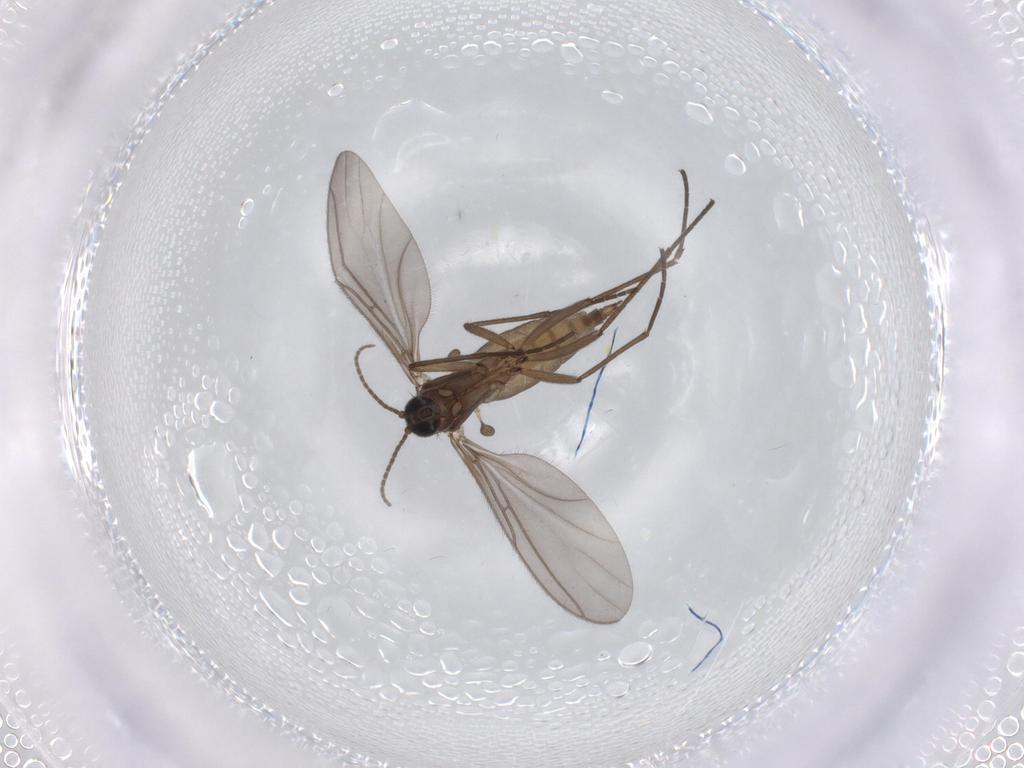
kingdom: Animalia
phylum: Arthropoda
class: Insecta
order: Diptera
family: Sciaridae
